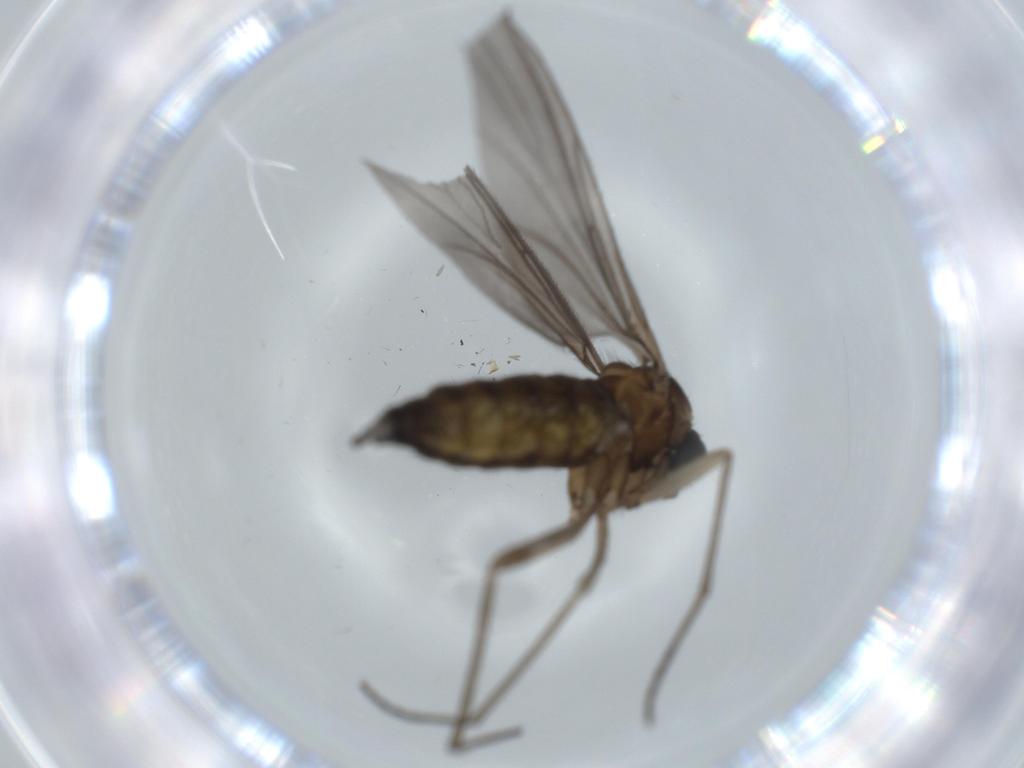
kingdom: Animalia
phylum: Arthropoda
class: Insecta
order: Diptera
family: Sciaridae
